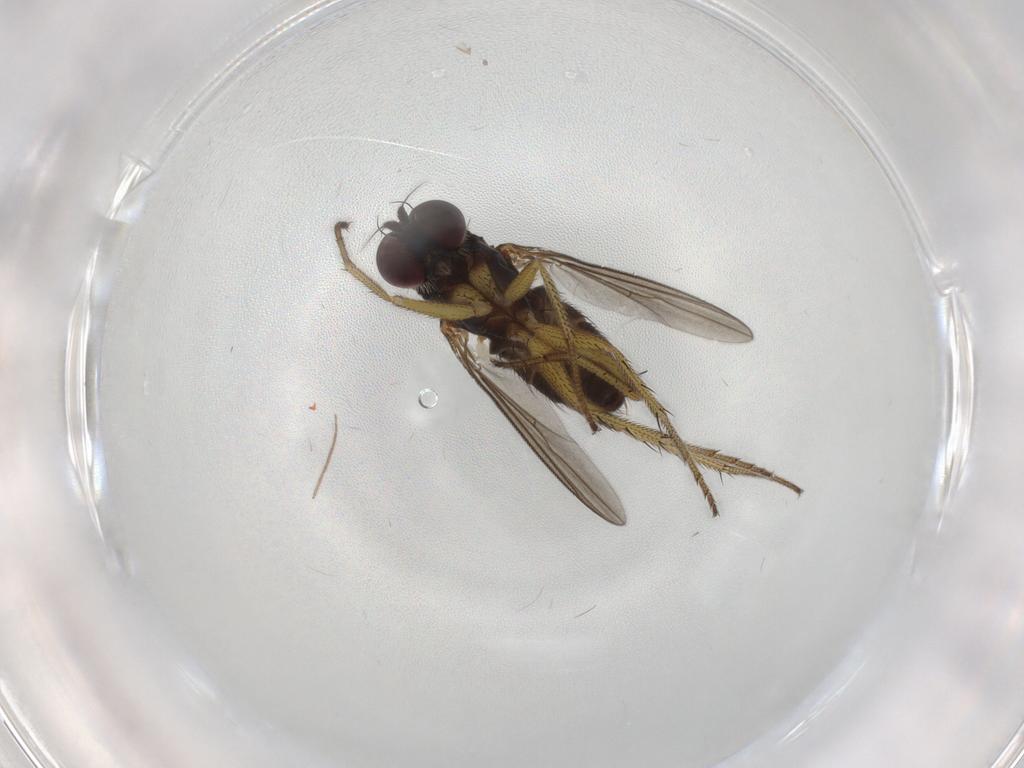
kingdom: Animalia
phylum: Arthropoda
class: Insecta
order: Diptera
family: Dolichopodidae
